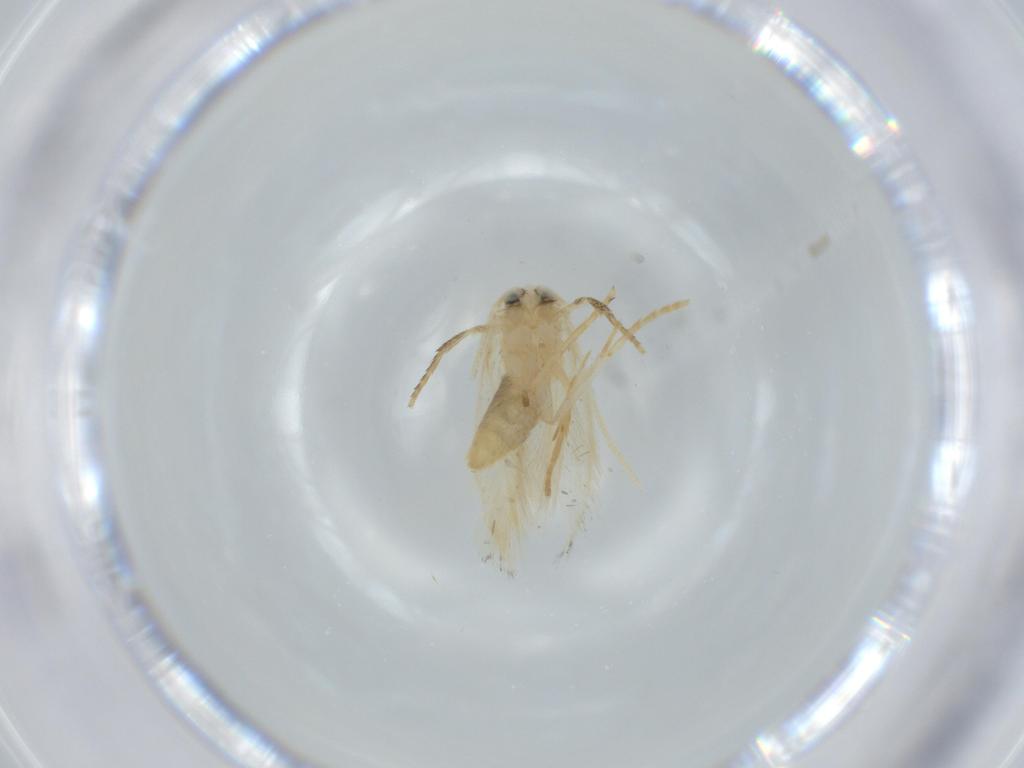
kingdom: Animalia
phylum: Arthropoda
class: Insecta
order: Lepidoptera
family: Opostegidae
